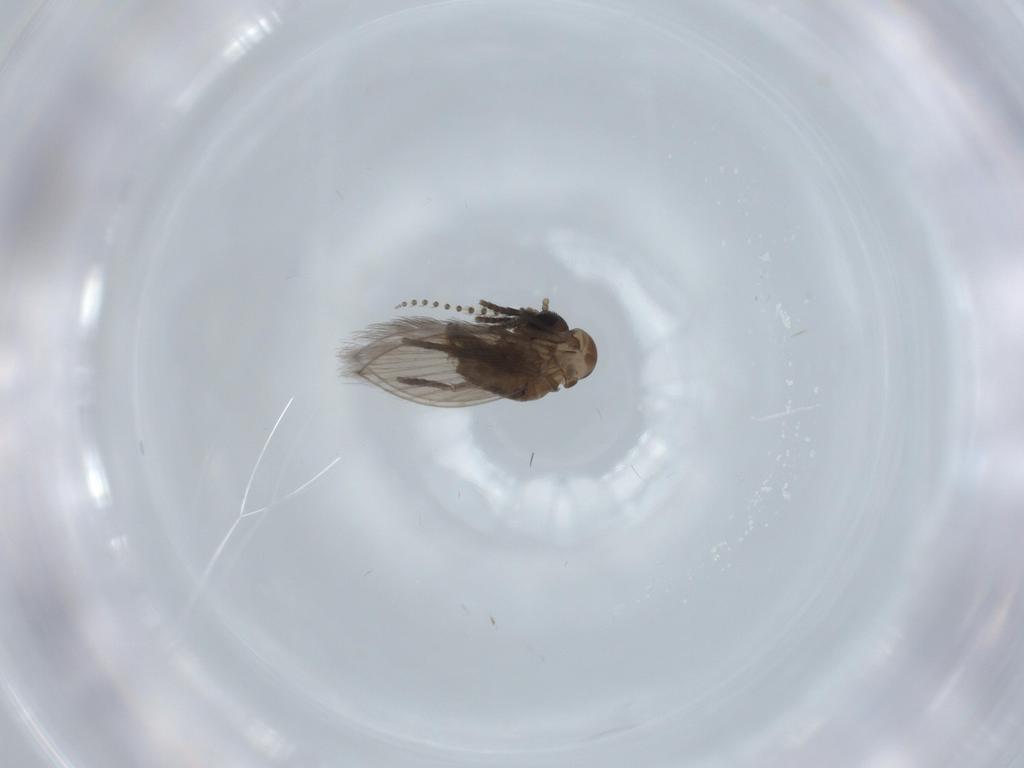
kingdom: Animalia
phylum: Arthropoda
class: Insecta
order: Diptera
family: Psychodidae
